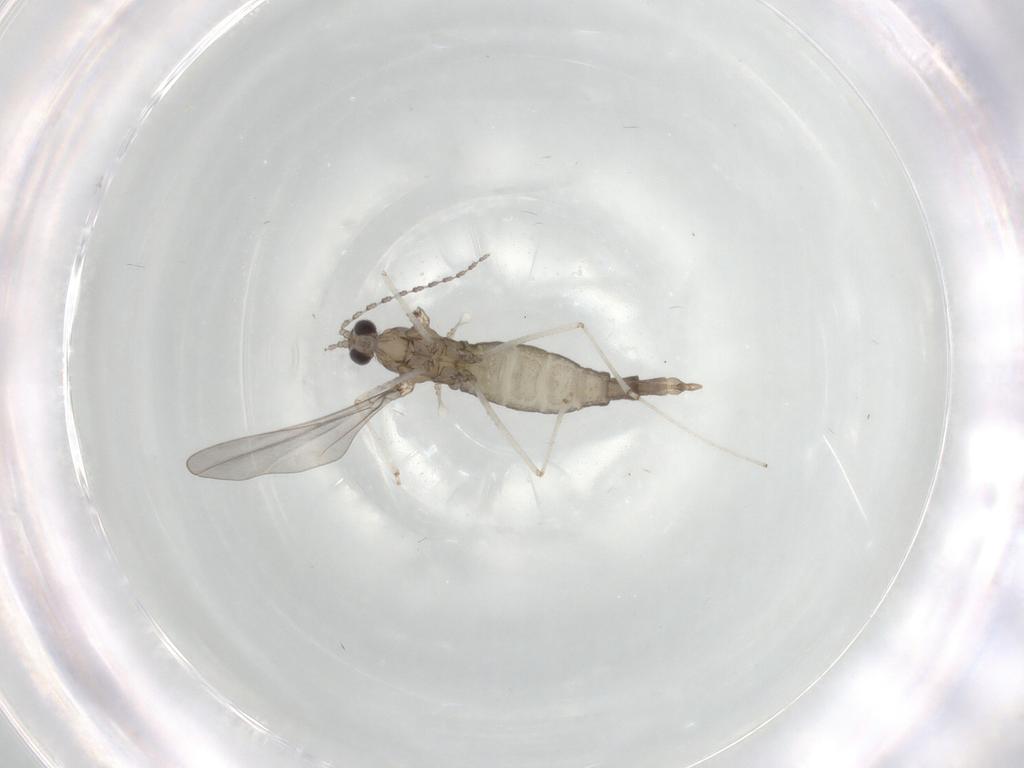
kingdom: Animalia
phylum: Arthropoda
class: Insecta
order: Diptera
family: Cecidomyiidae
